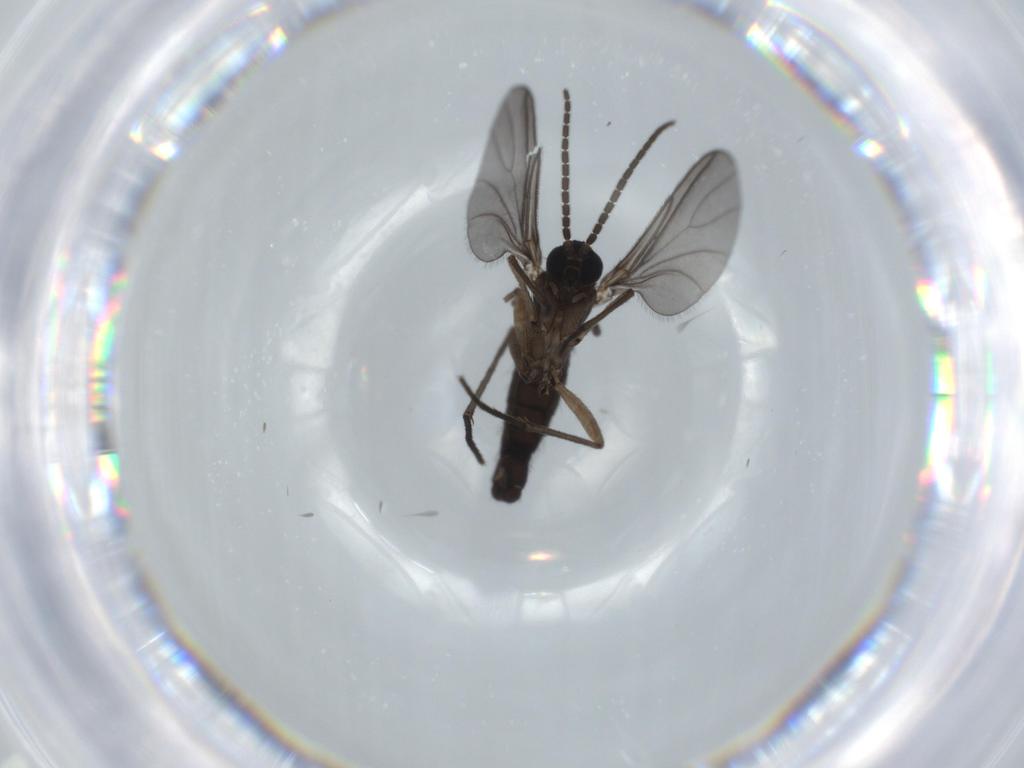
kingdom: Animalia
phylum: Arthropoda
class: Insecta
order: Diptera
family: Sciaridae
